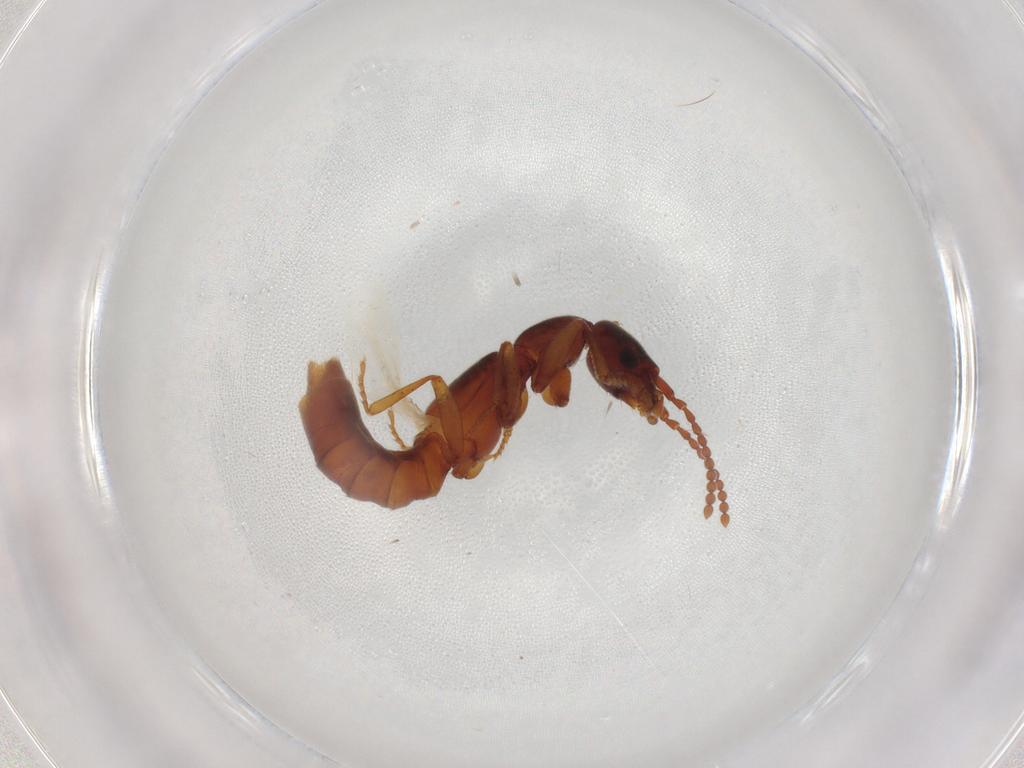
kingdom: Animalia
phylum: Arthropoda
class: Insecta
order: Coleoptera
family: Staphylinidae
